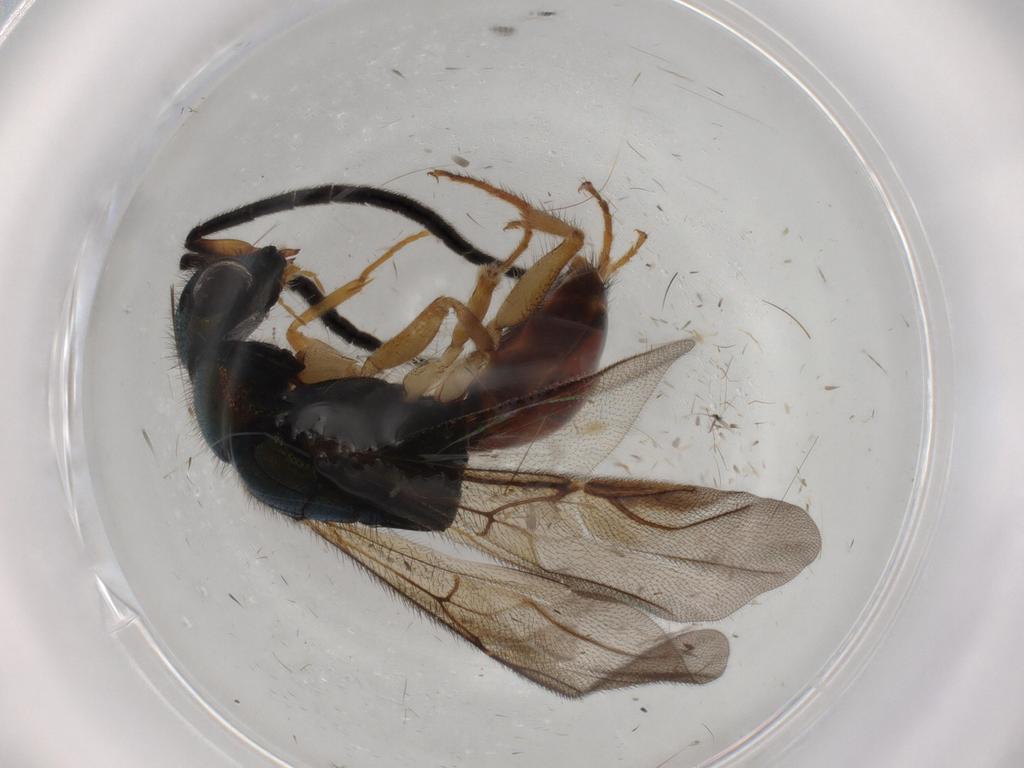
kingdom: Animalia
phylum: Arthropoda
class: Insecta
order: Hymenoptera
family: Chrysididae
